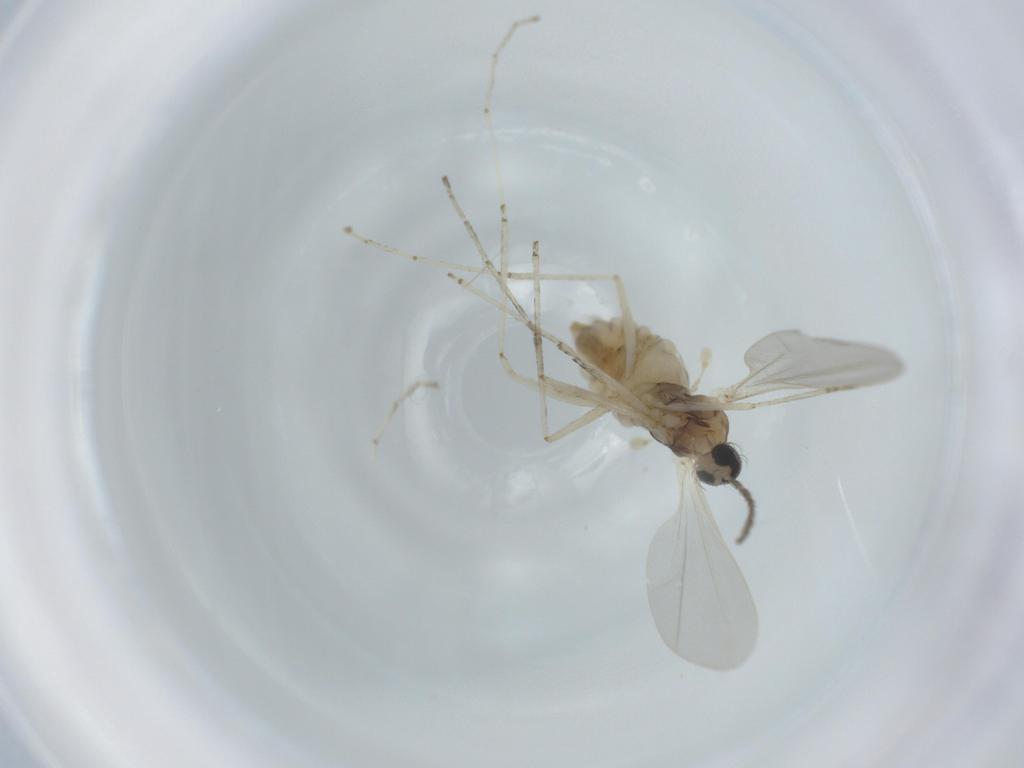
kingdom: Animalia
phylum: Arthropoda
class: Insecta
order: Diptera
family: Cecidomyiidae
